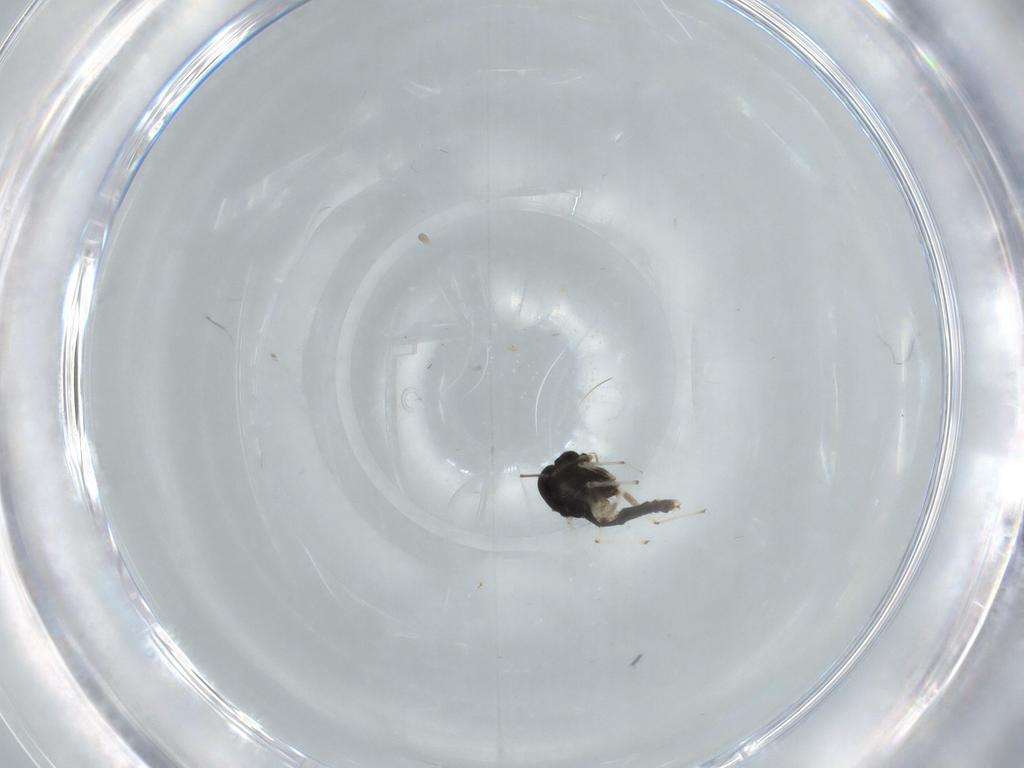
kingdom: Animalia
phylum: Arthropoda
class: Insecta
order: Diptera
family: Chironomidae
